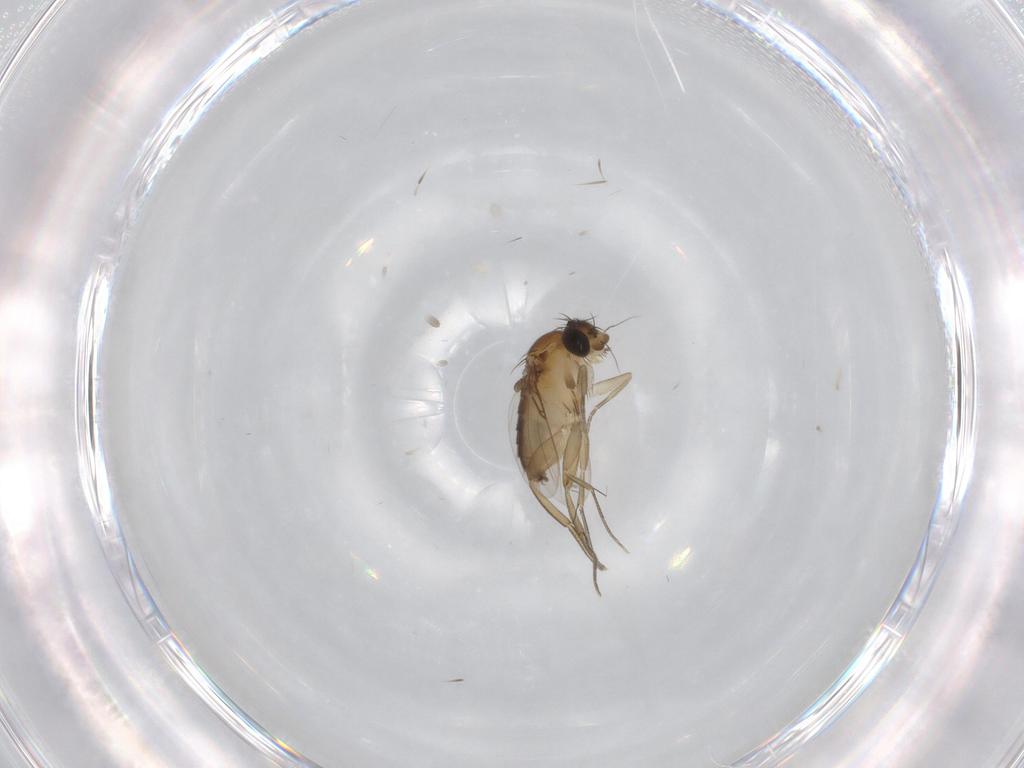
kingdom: Animalia
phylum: Arthropoda
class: Insecta
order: Diptera
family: Phoridae
